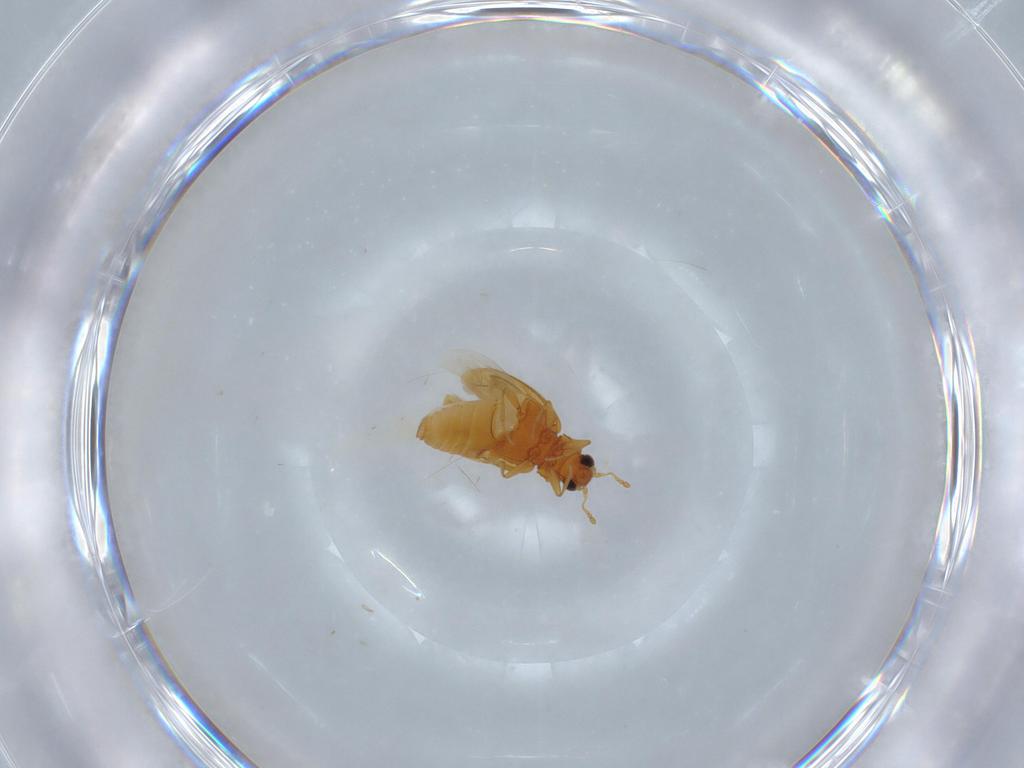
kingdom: Animalia
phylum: Arthropoda
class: Insecta
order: Coleoptera
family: Latridiidae
